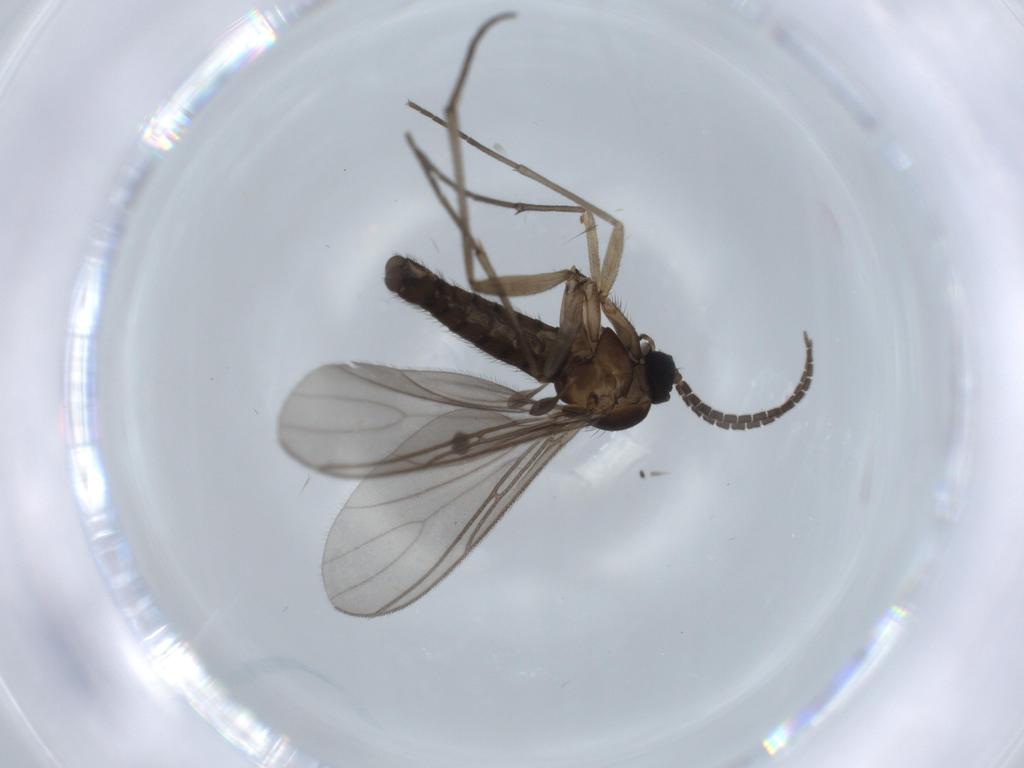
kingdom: Animalia
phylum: Arthropoda
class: Insecta
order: Diptera
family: Sciaridae
